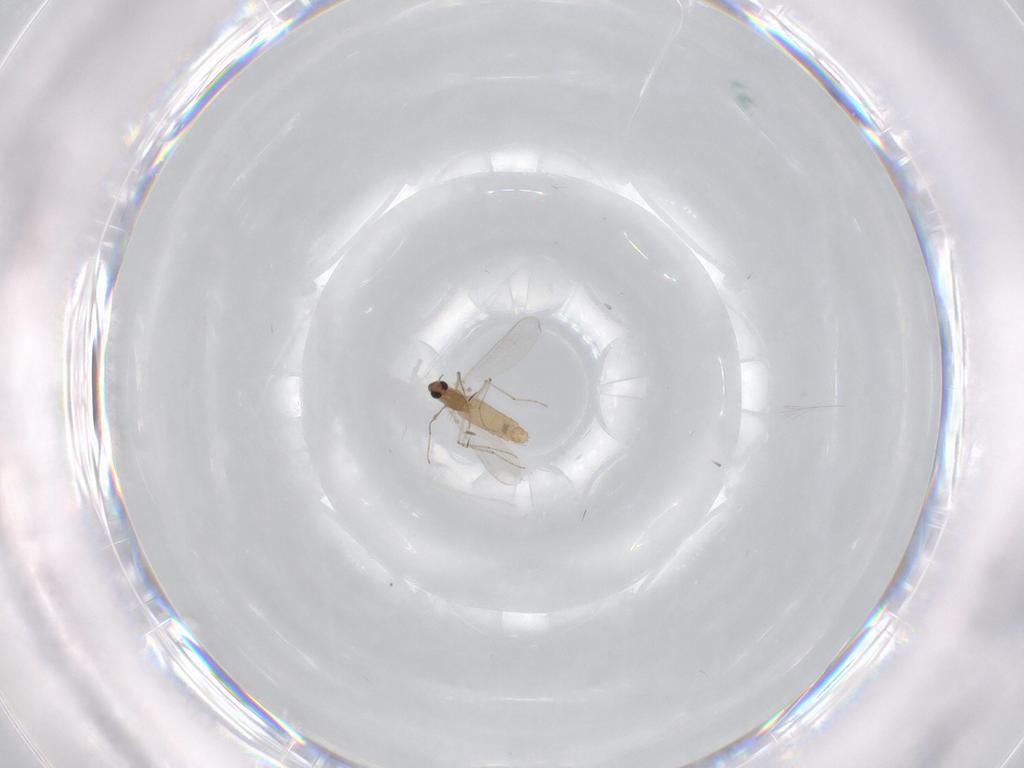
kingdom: Animalia
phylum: Arthropoda
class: Insecta
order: Diptera
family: Chironomidae
